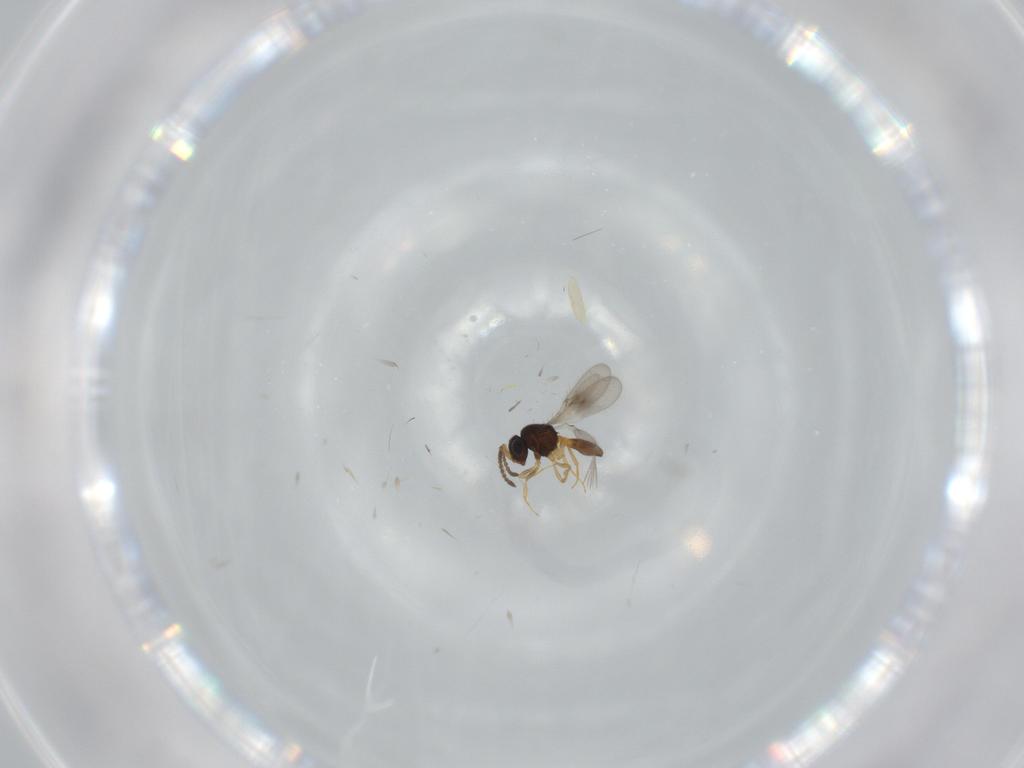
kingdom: Animalia
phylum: Arthropoda
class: Insecta
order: Hymenoptera
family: Scelionidae
